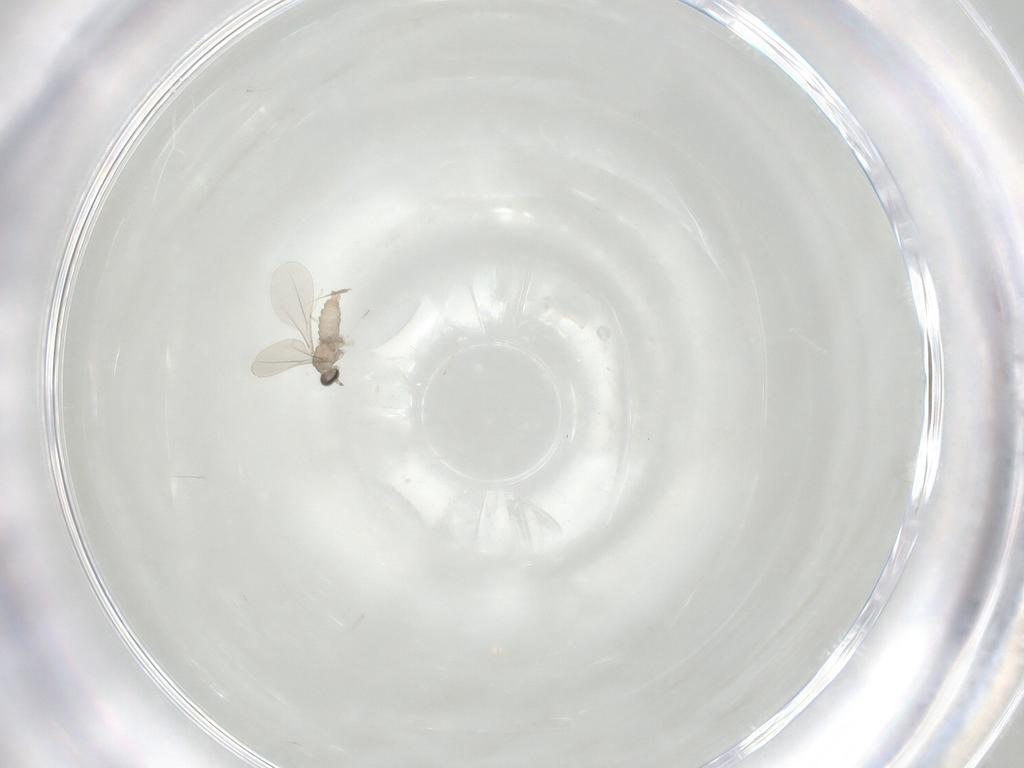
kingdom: Animalia
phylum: Arthropoda
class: Insecta
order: Diptera
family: Cecidomyiidae
